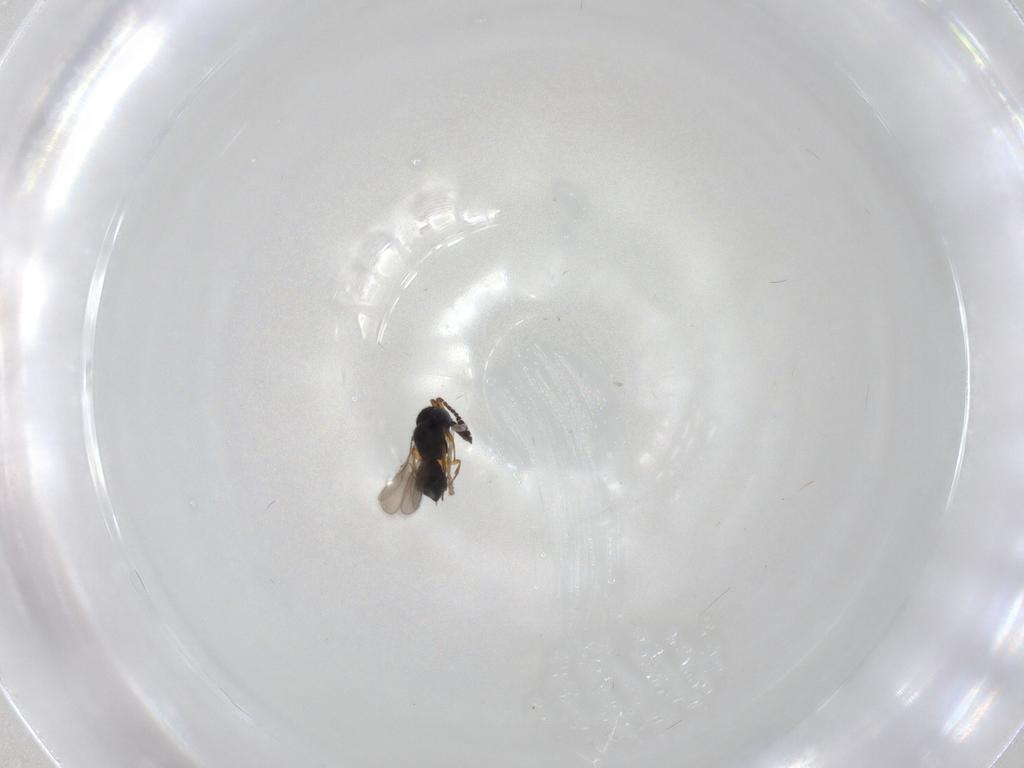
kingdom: Animalia
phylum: Arthropoda
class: Insecta
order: Hymenoptera
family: Scelionidae
